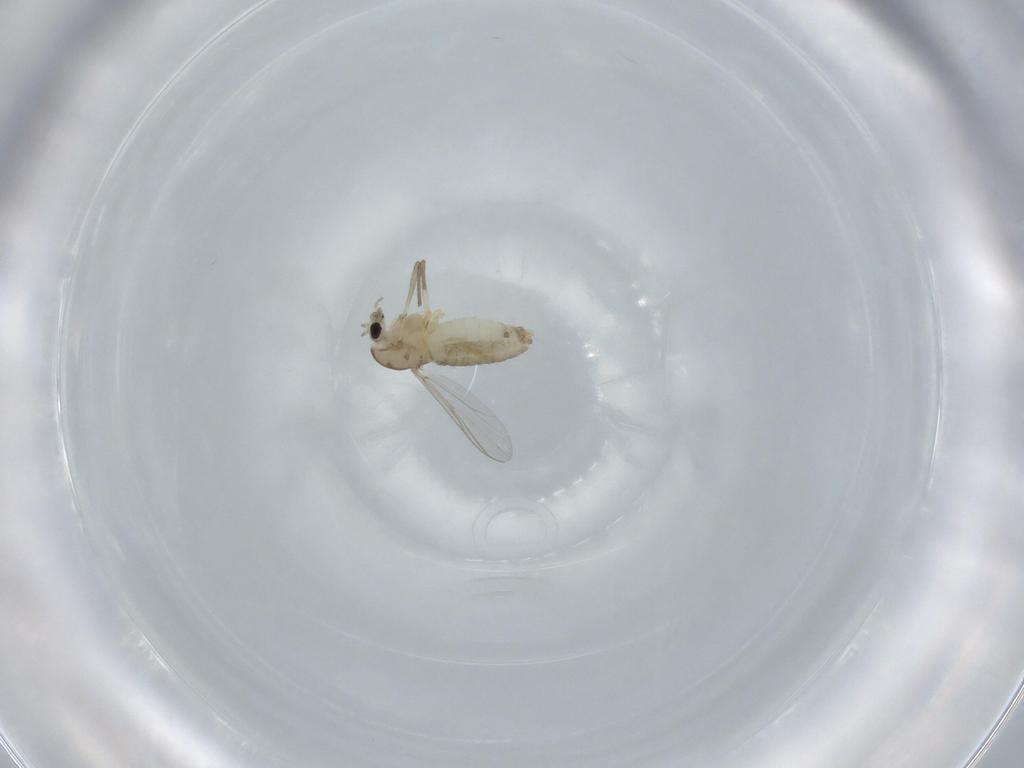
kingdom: Animalia
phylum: Arthropoda
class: Insecta
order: Diptera
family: Chironomidae
